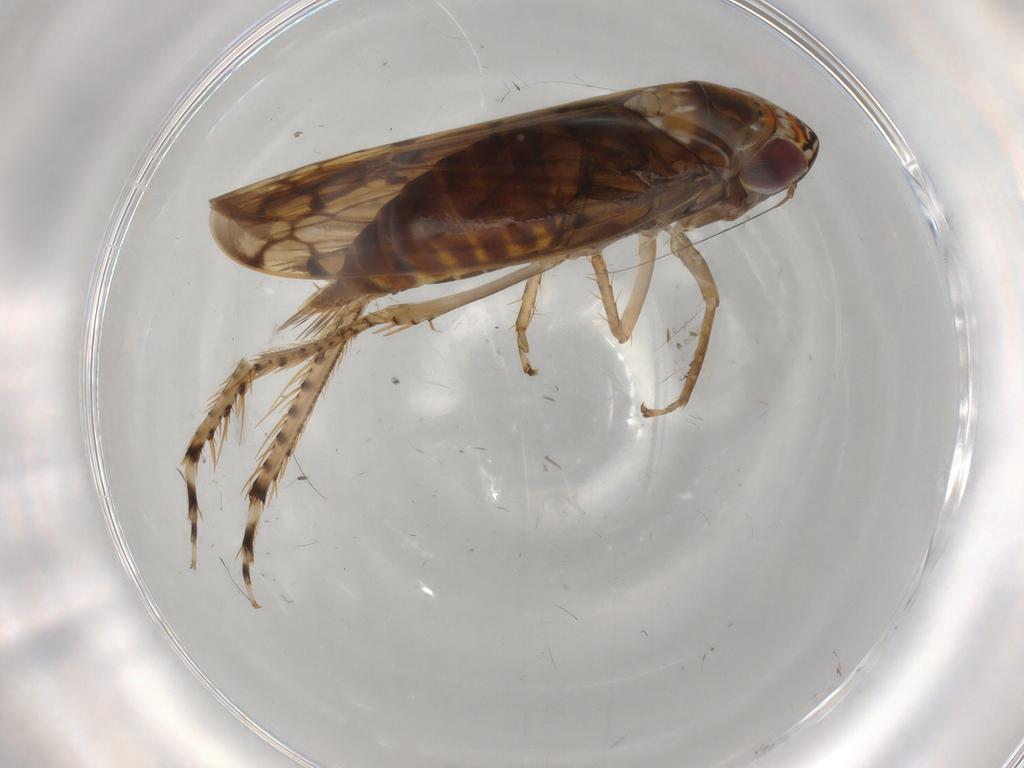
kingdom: Animalia
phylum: Arthropoda
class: Insecta
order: Hemiptera
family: Cicadellidae
